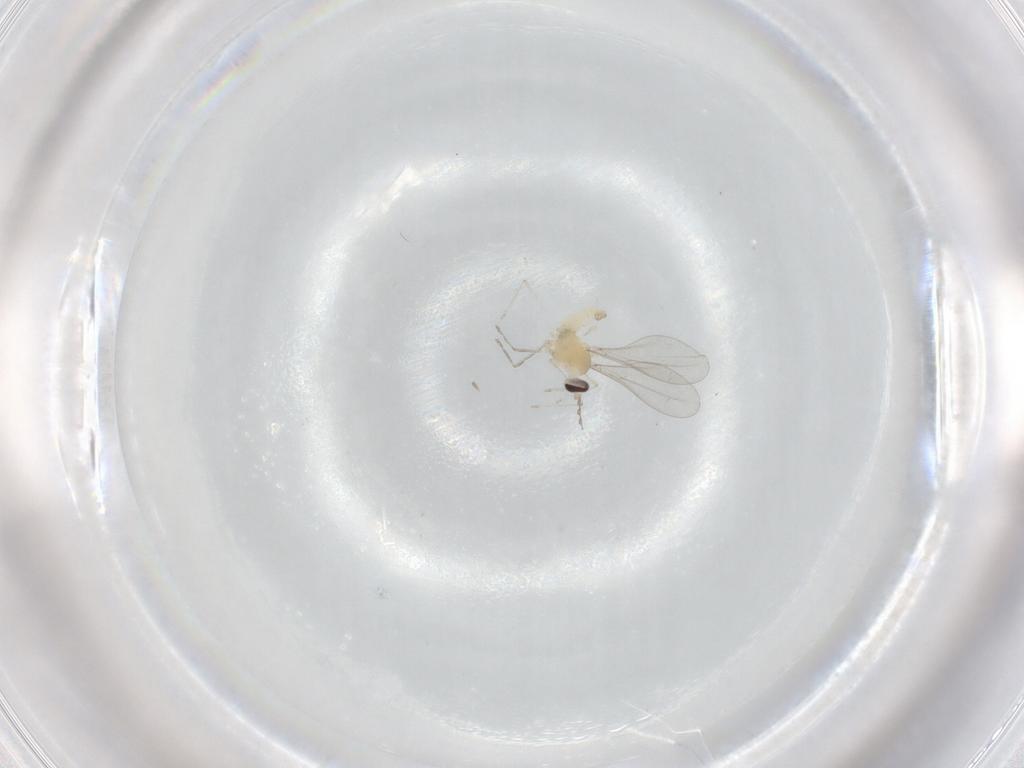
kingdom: Animalia
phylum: Arthropoda
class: Insecta
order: Diptera
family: Cecidomyiidae
